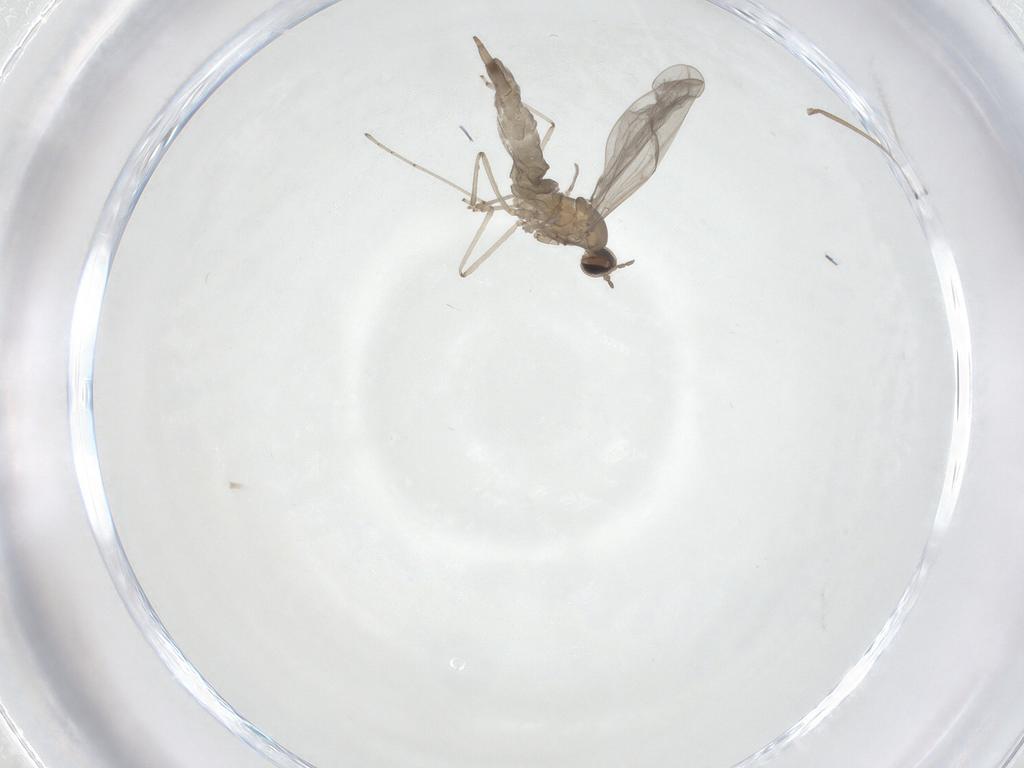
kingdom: Animalia
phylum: Arthropoda
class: Insecta
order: Diptera
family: Cecidomyiidae
